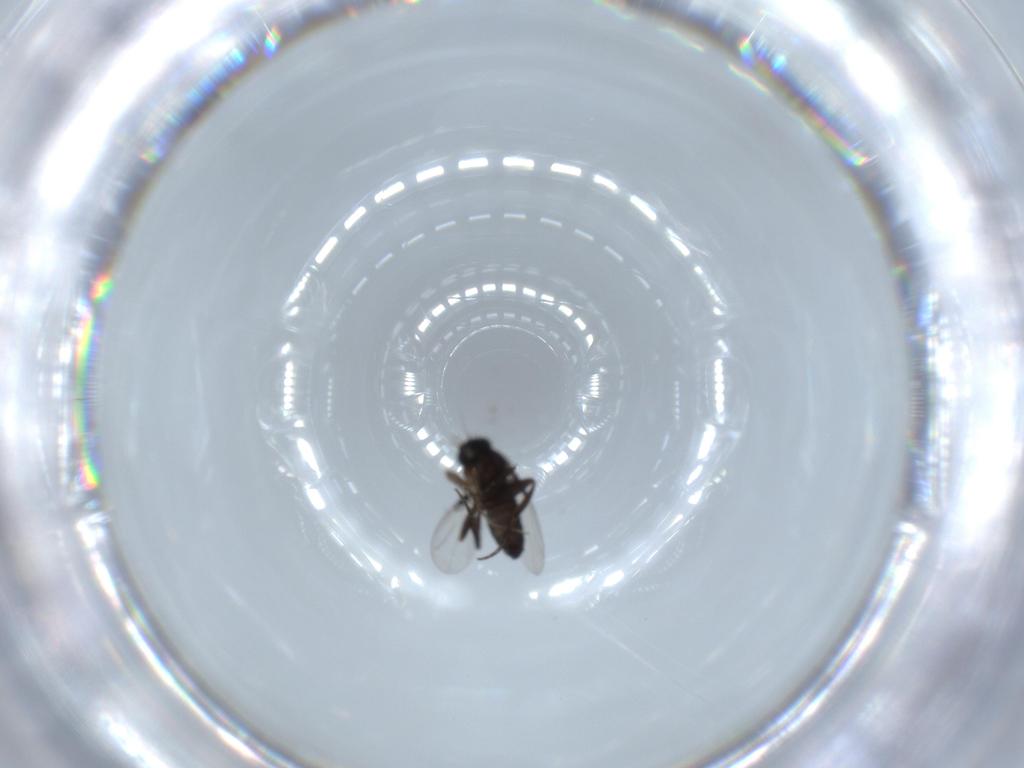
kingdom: Animalia
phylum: Arthropoda
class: Insecta
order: Diptera
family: Phoridae
